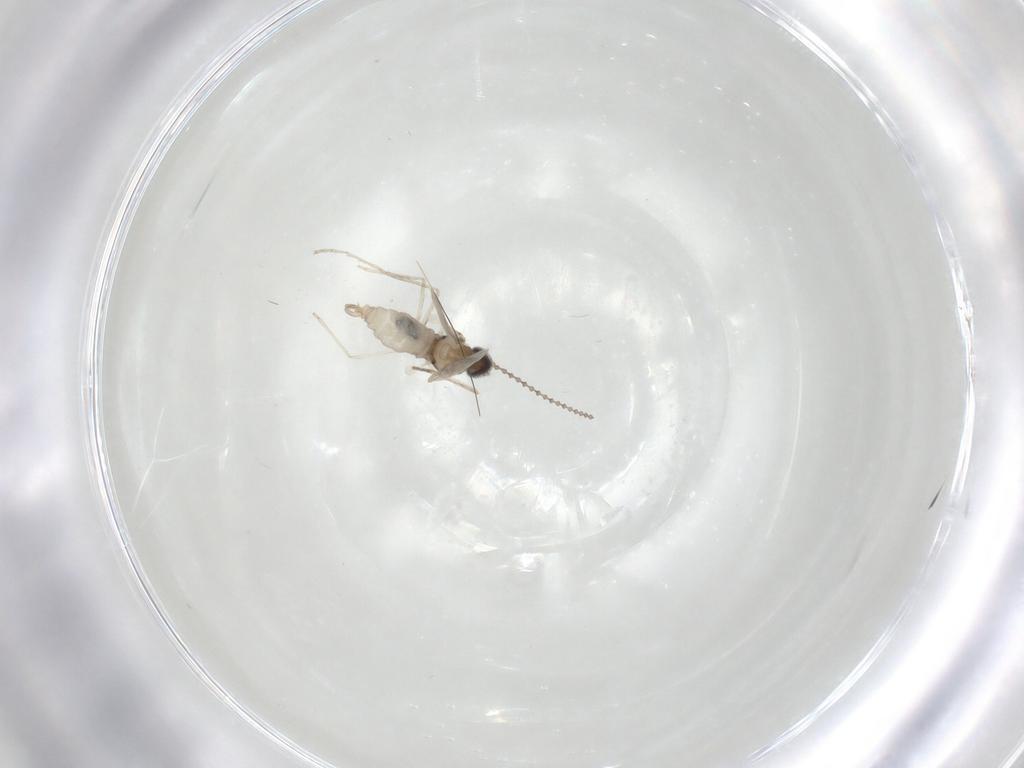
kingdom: Animalia
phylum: Arthropoda
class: Insecta
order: Diptera
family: Cecidomyiidae
